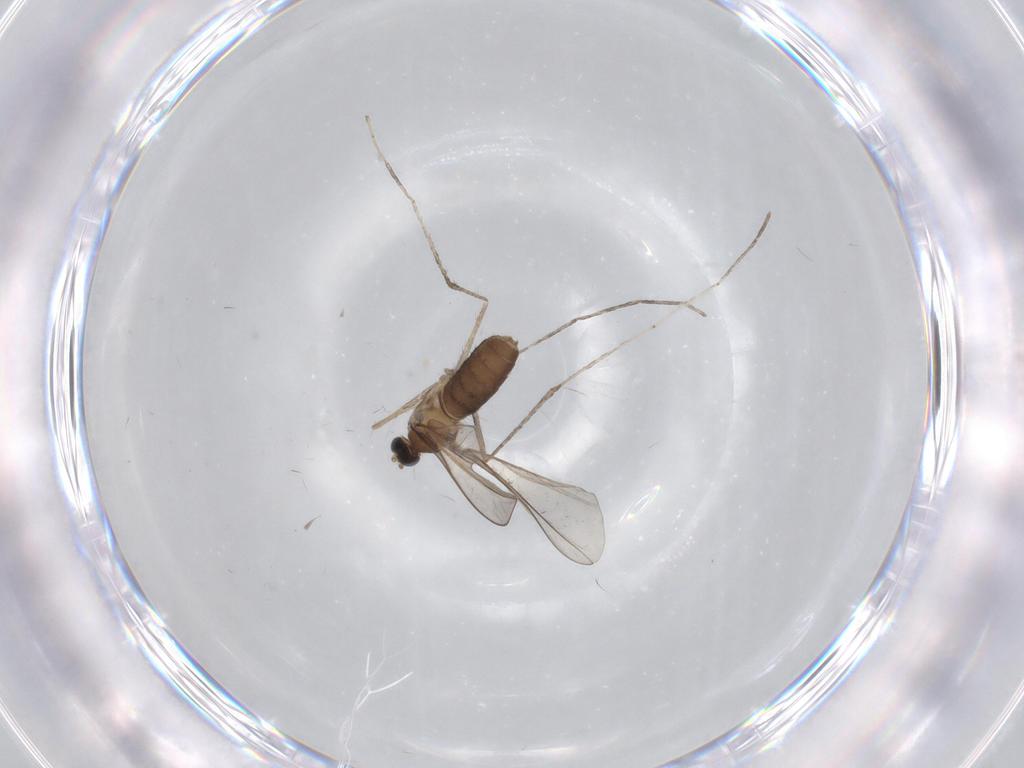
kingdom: Animalia
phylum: Arthropoda
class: Insecta
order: Diptera
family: Cecidomyiidae
